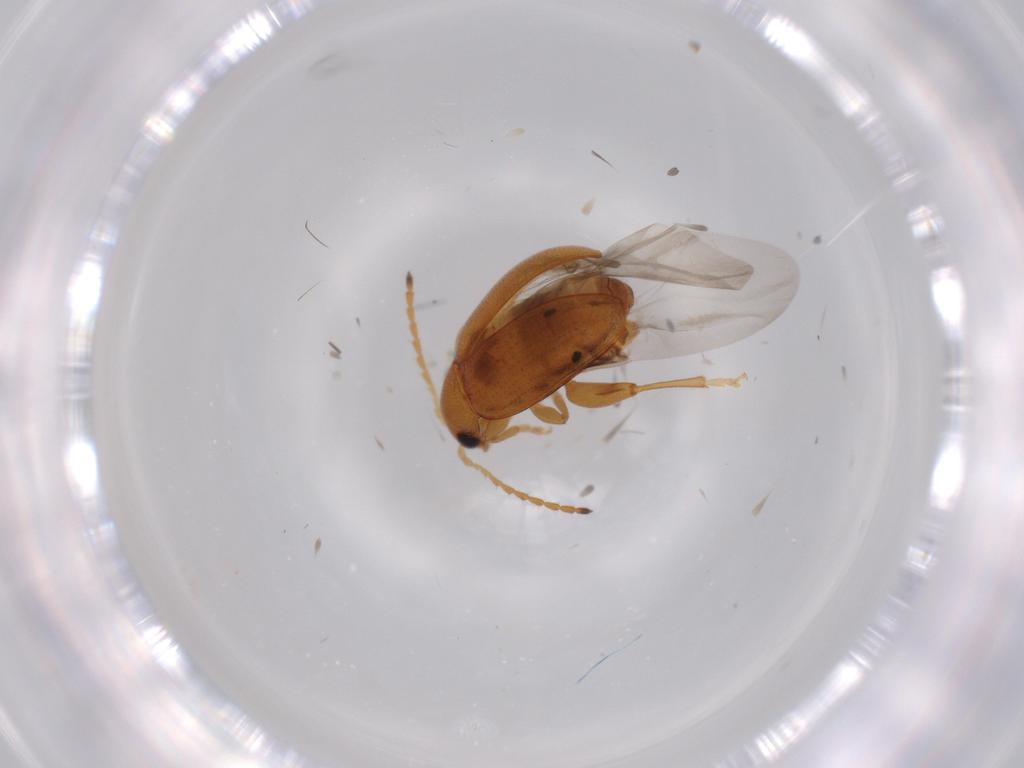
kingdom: Animalia
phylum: Arthropoda
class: Insecta
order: Coleoptera
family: Chrysomelidae
